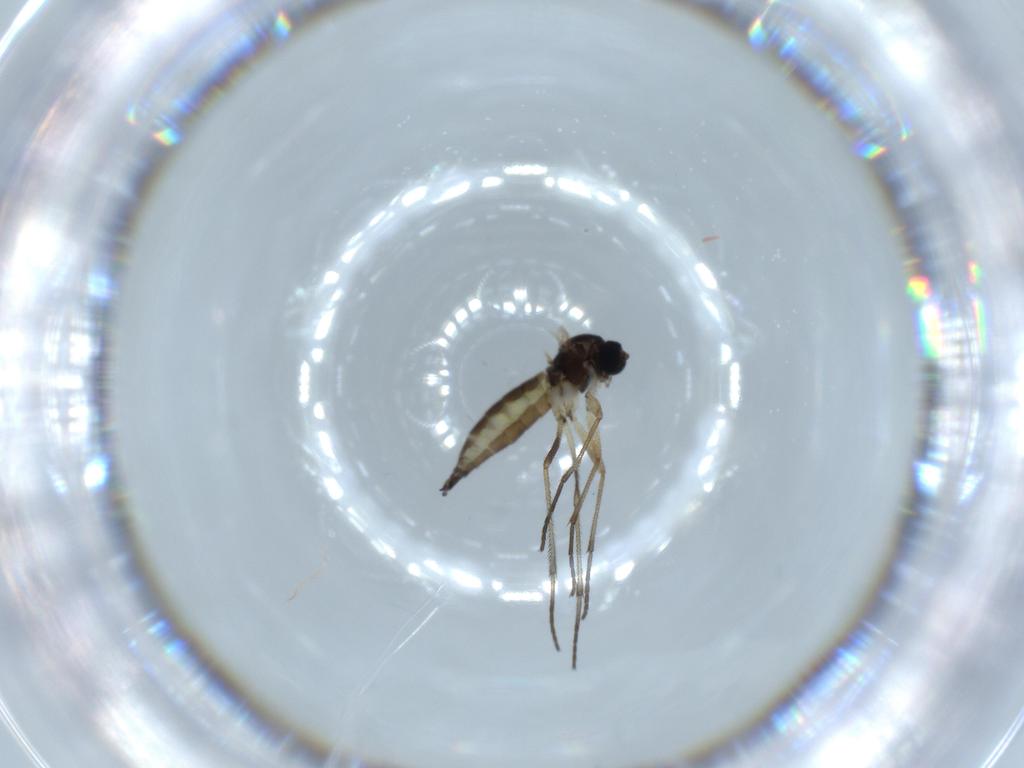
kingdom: Animalia
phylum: Arthropoda
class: Insecta
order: Diptera
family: Sciaridae
